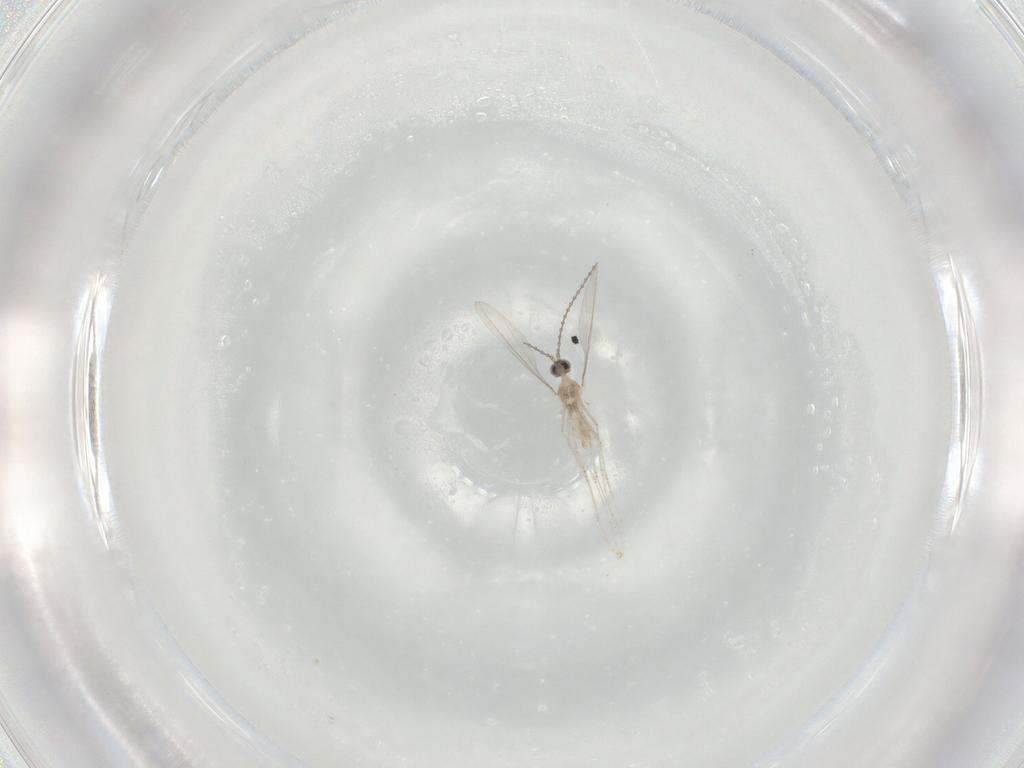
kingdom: Animalia
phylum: Arthropoda
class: Insecta
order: Diptera
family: Cecidomyiidae
